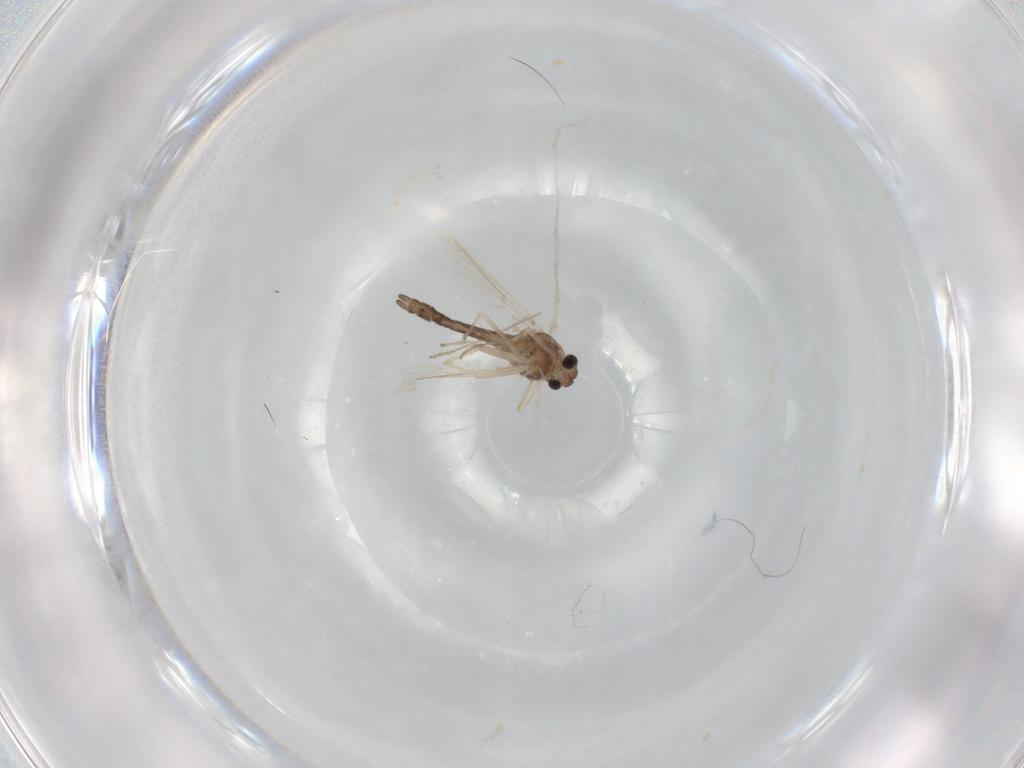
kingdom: Animalia
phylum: Arthropoda
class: Insecta
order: Diptera
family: Chironomidae
